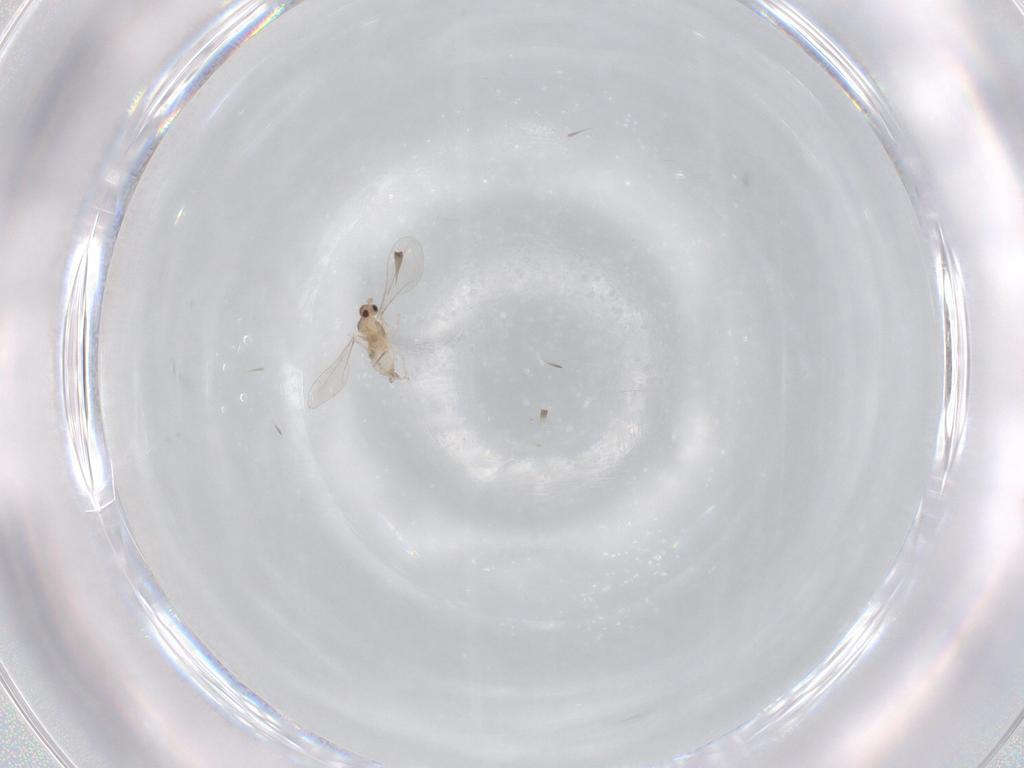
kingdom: Animalia
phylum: Arthropoda
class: Insecta
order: Diptera
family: Cecidomyiidae
